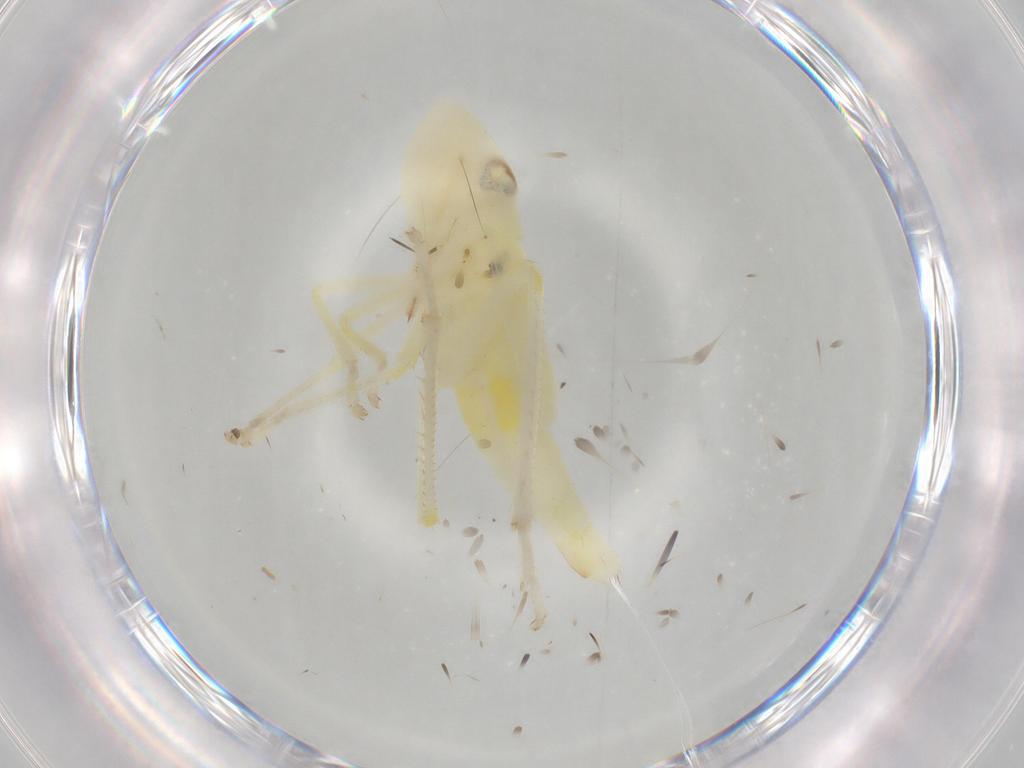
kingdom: Animalia
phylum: Arthropoda
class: Insecta
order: Hemiptera
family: Cicadellidae
